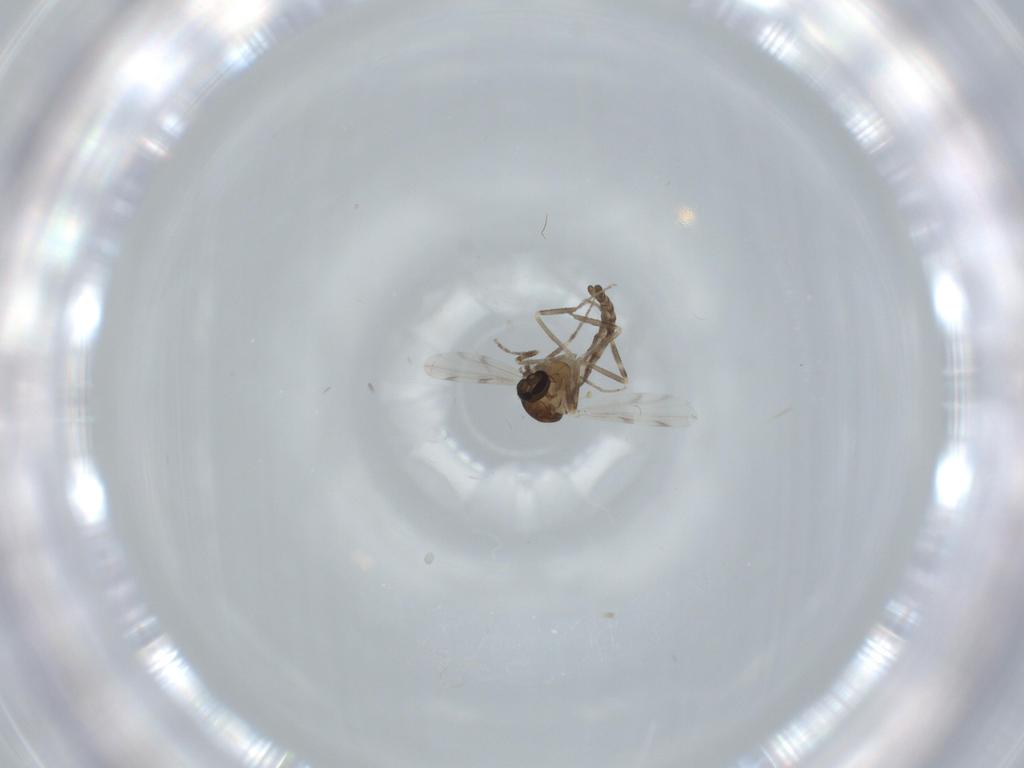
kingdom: Animalia
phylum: Arthropoda
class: Insecta
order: Diptera
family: Ceratopogonidae
